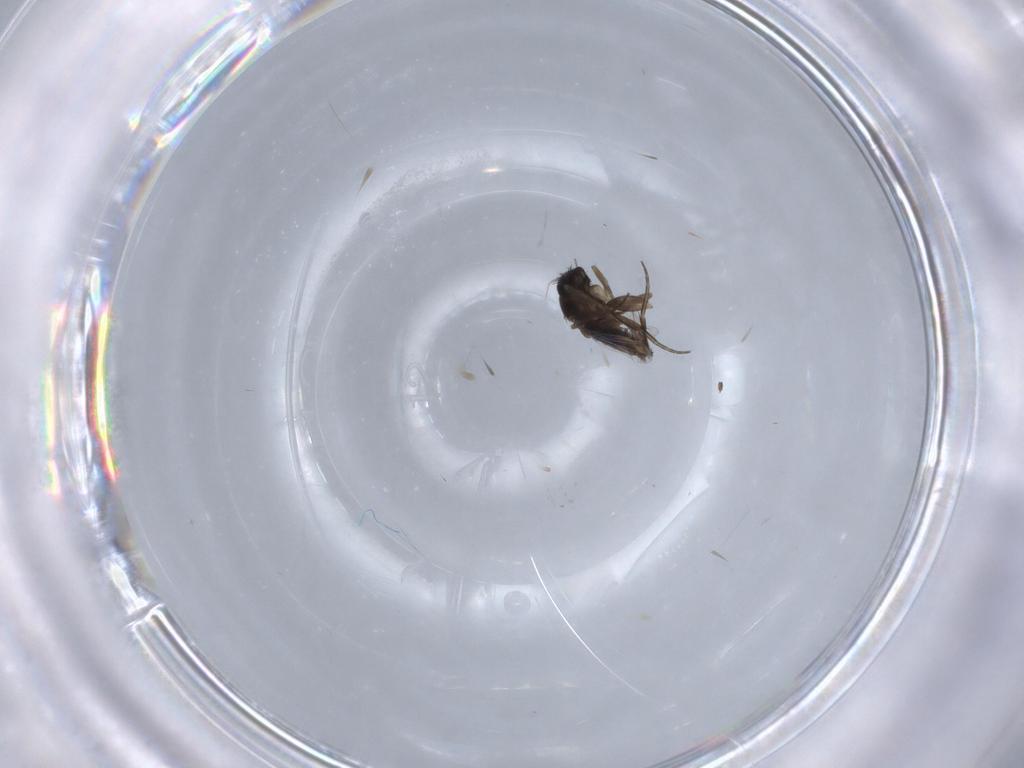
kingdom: Animalia
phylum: Arthropoda
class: Insecta
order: Diptera
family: Phoridae
